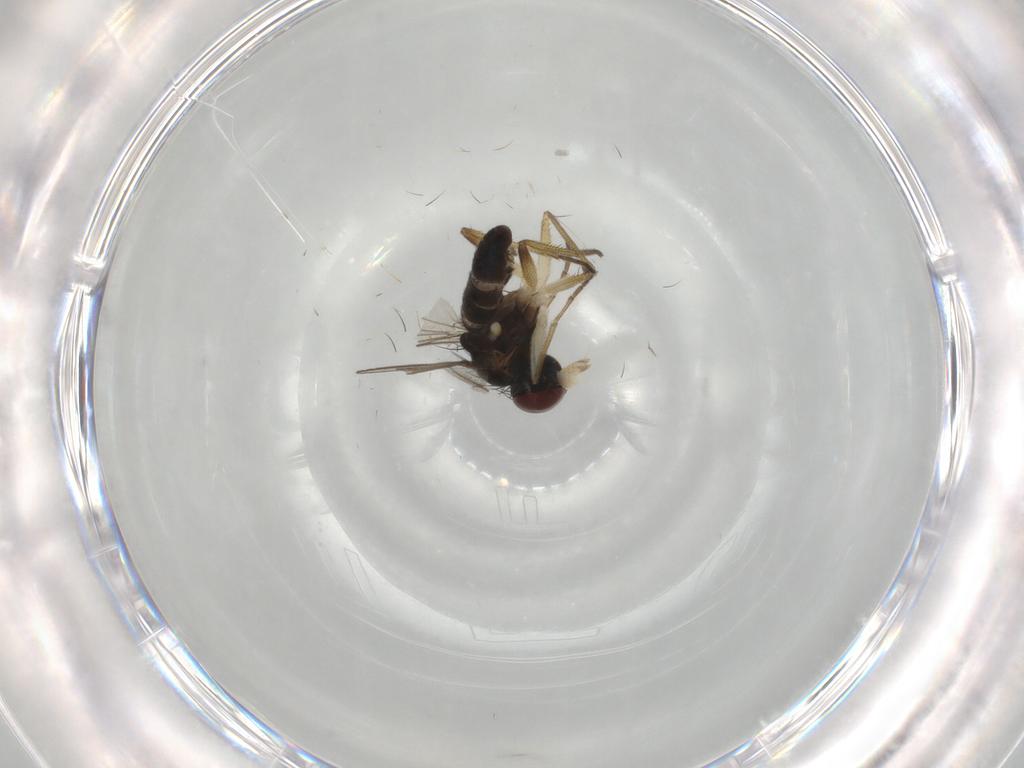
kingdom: Animalia
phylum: Arthropoda
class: Insecta
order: Diptera
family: Dolichopodidae
